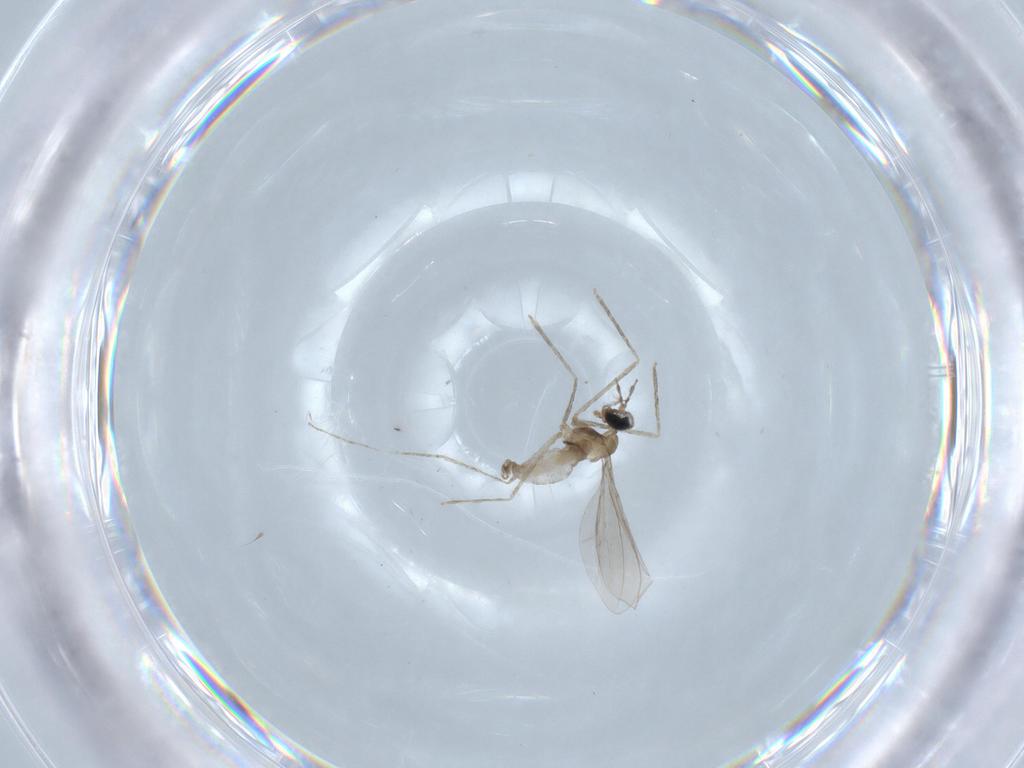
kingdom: Animalia
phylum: Arthropoda
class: Insecta
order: Diptera
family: Cecidomyiidae
